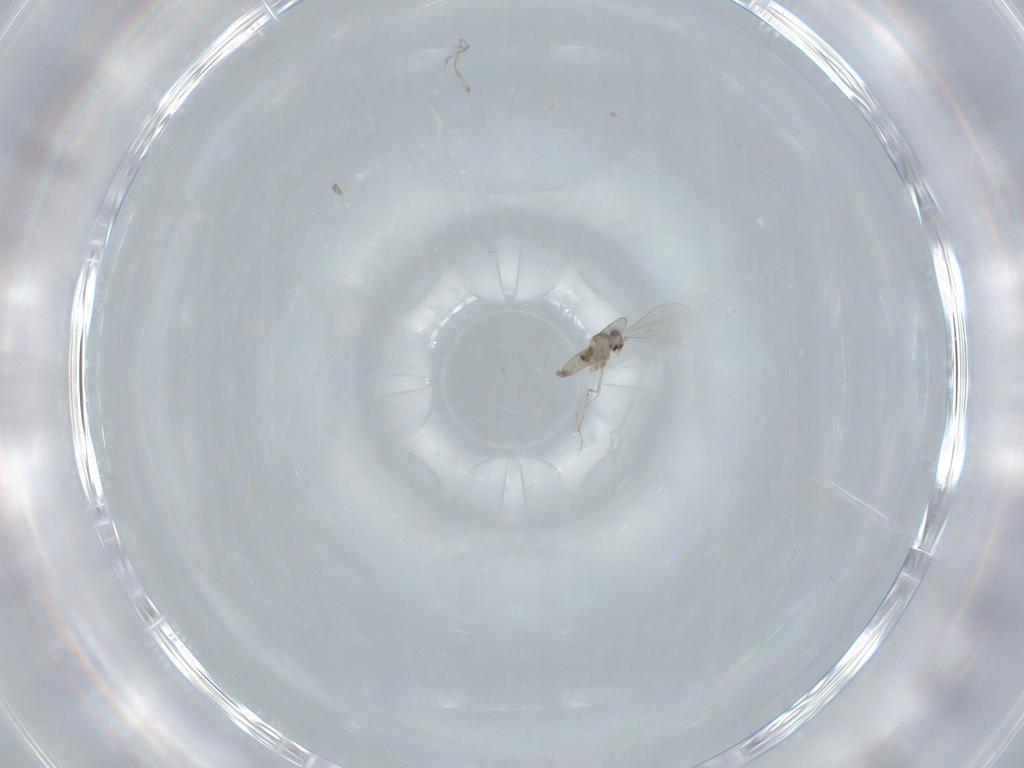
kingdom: Animalia
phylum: Arthropoda
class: Insecta
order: Diptera
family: Cecidomyiidae
